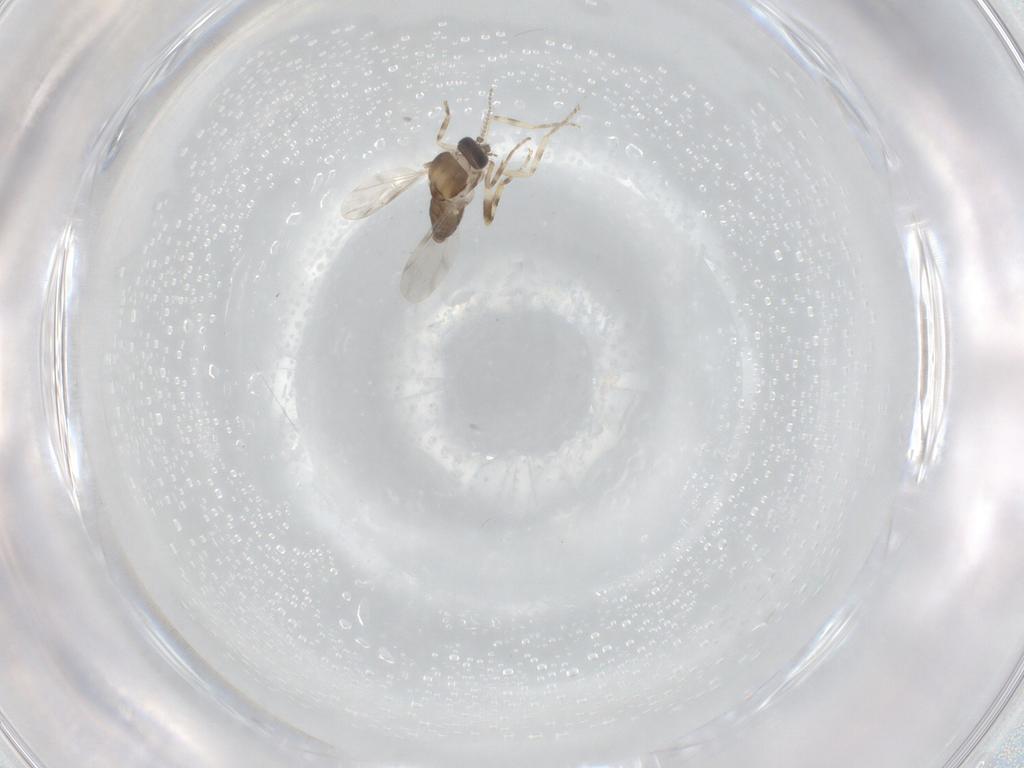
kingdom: Animalia
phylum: Arthropoda
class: Insecta
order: Diptera
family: Ceratopogonidae
